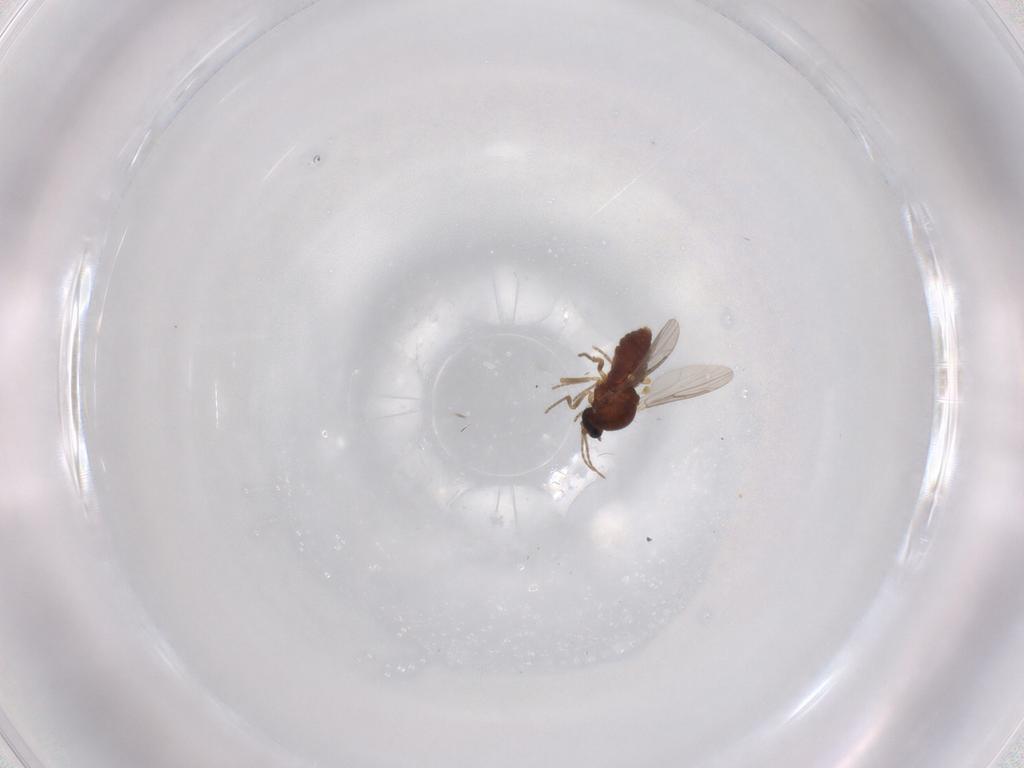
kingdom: Animalia
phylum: Arthropoda
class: Insecta
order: Diptera
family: Ceratopogonidae
